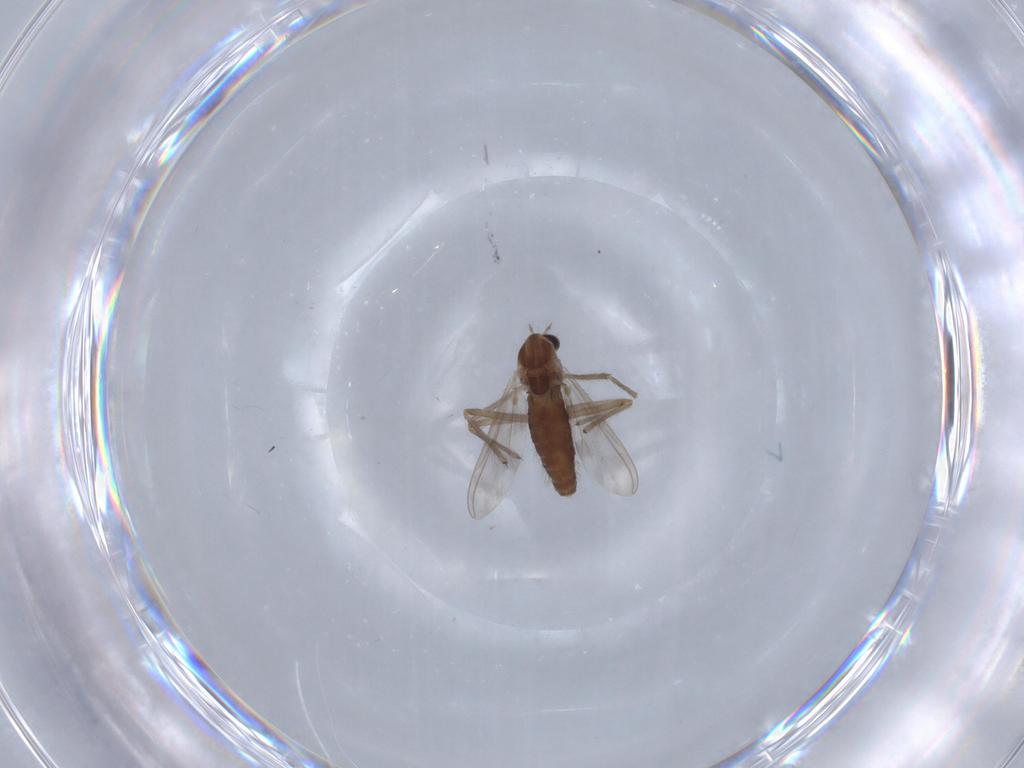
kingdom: Animalia
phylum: Arthropoda
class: Insecta
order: Diptera
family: Chironomidae
